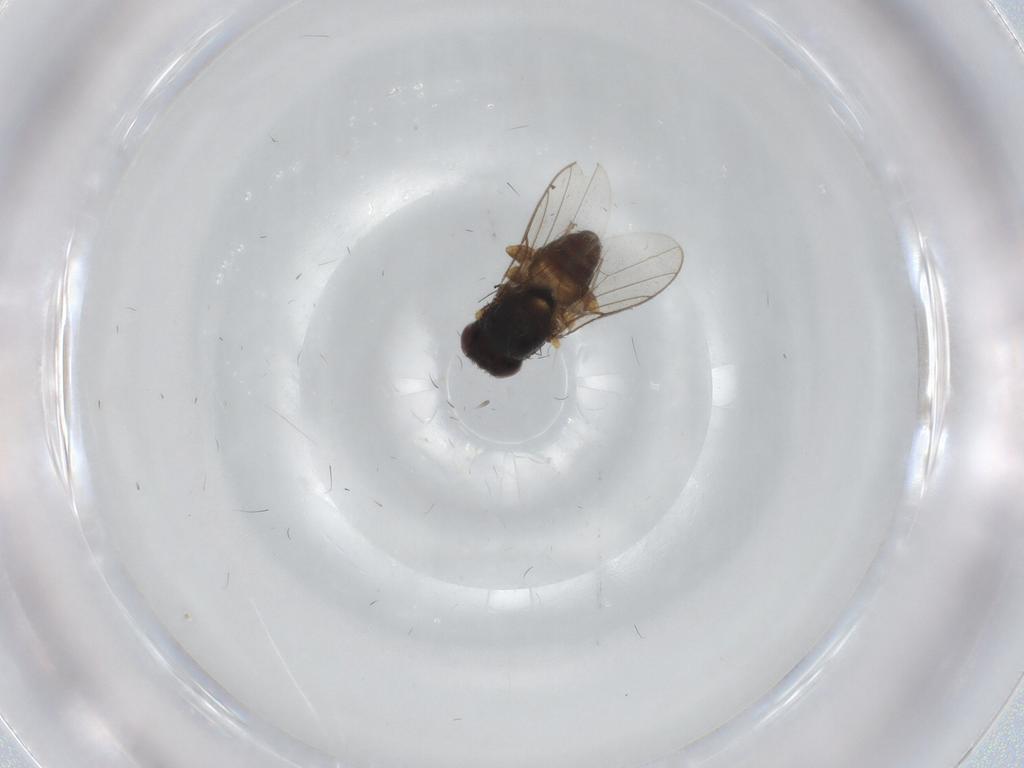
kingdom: Animalia
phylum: Arthropoda
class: Insecta
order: Diptera
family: Chloropidae
